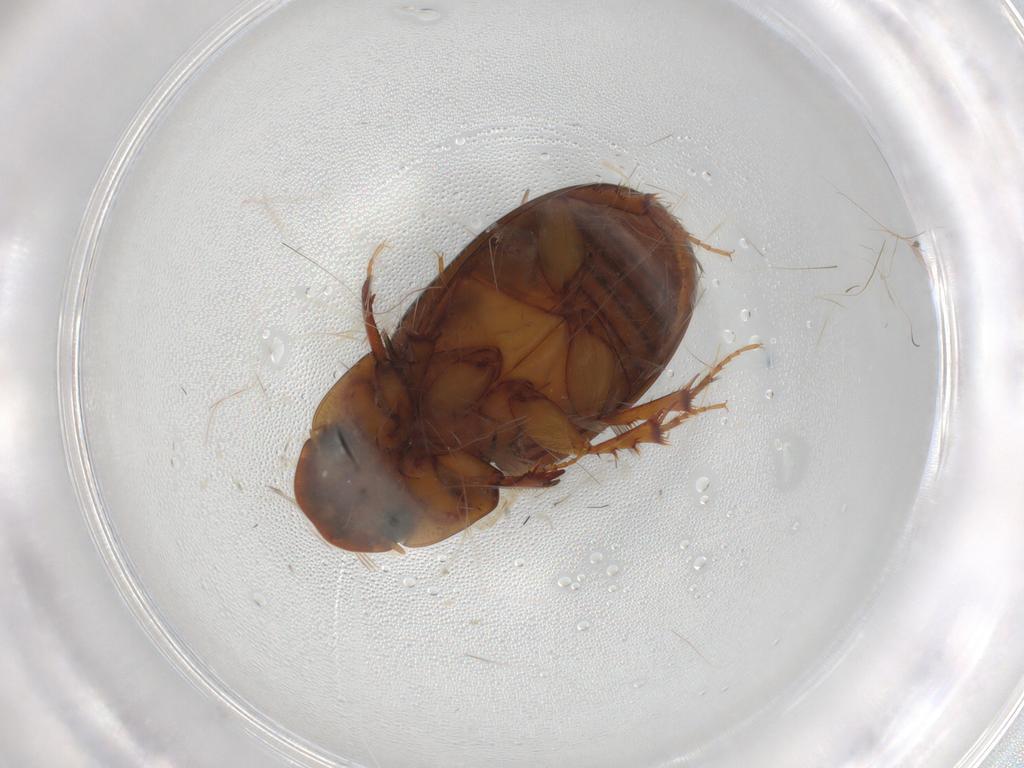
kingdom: Animalia
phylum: Arthropoda
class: Insecta
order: Coleoptera
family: Scarabaeidae
